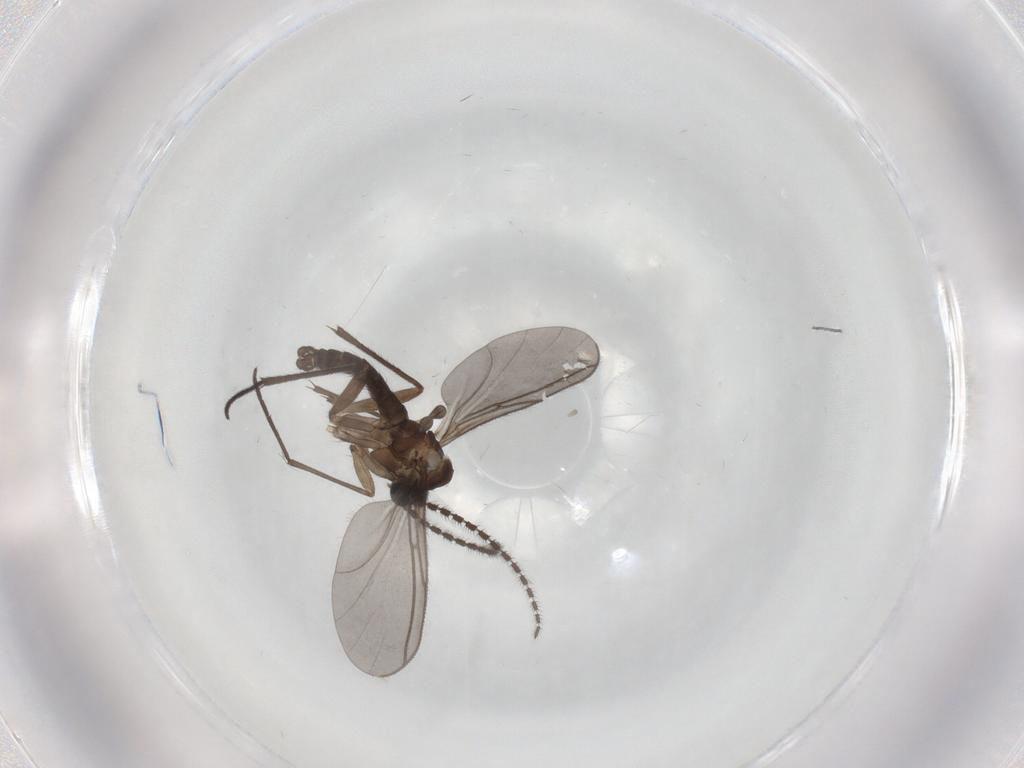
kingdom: Animalia
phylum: Arthropoda
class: Insecta
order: Diptera
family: Sciaridae
